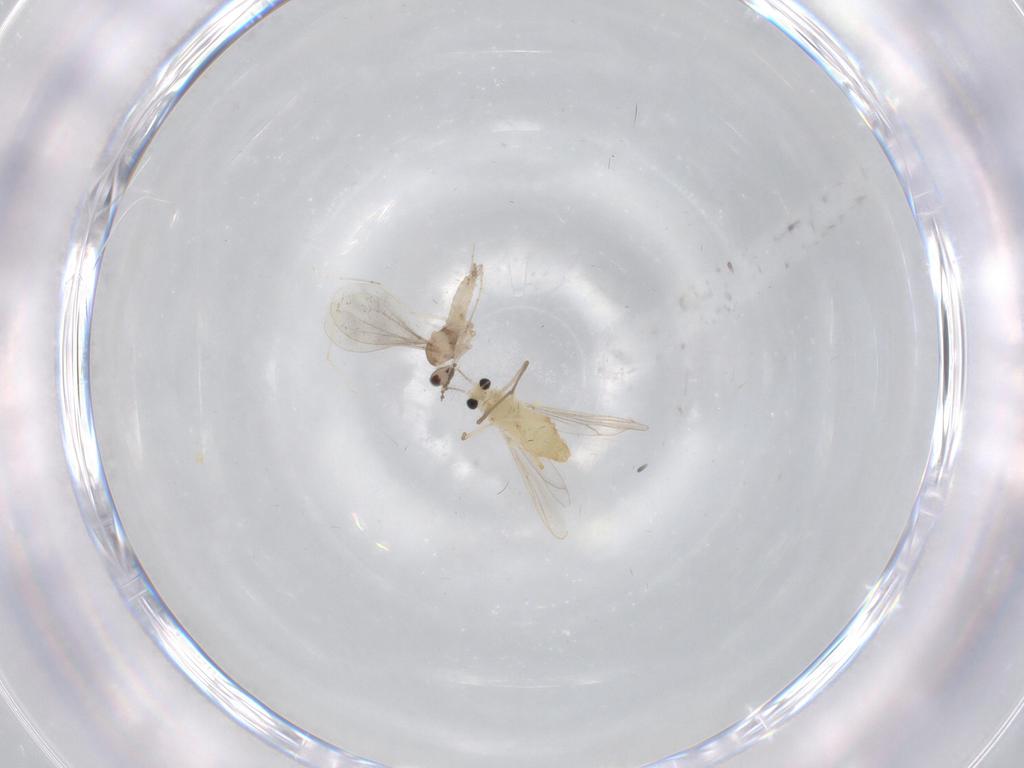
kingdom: Animalia
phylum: Arthropoda
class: Insecta
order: Diptera
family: Chironomidae
